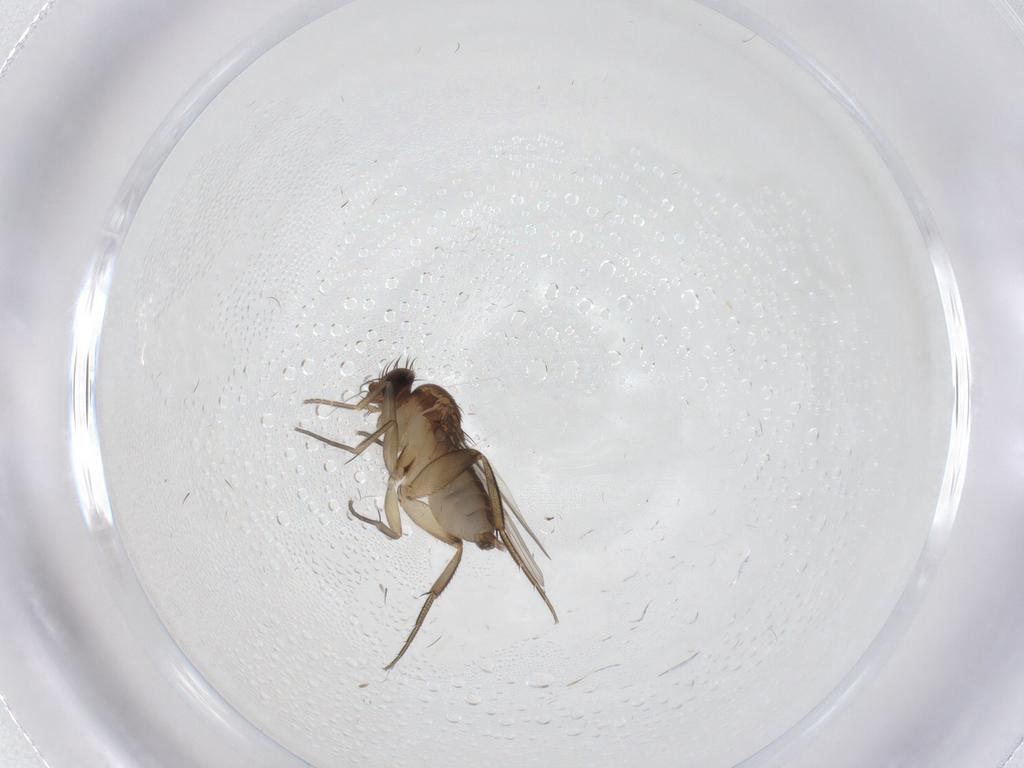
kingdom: Animalia
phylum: Arthropoda
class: Insecta
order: Diptera
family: Phoridae
